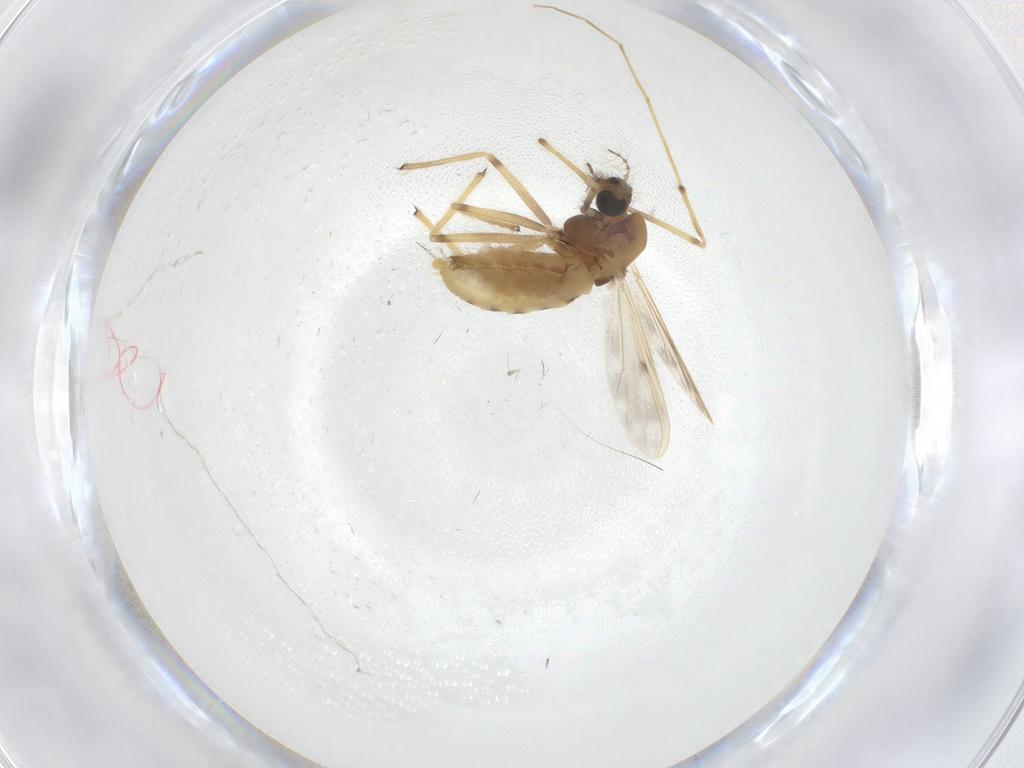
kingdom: Animalia
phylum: Arthropoda
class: Insecta
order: Diptera
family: Chironomidae
